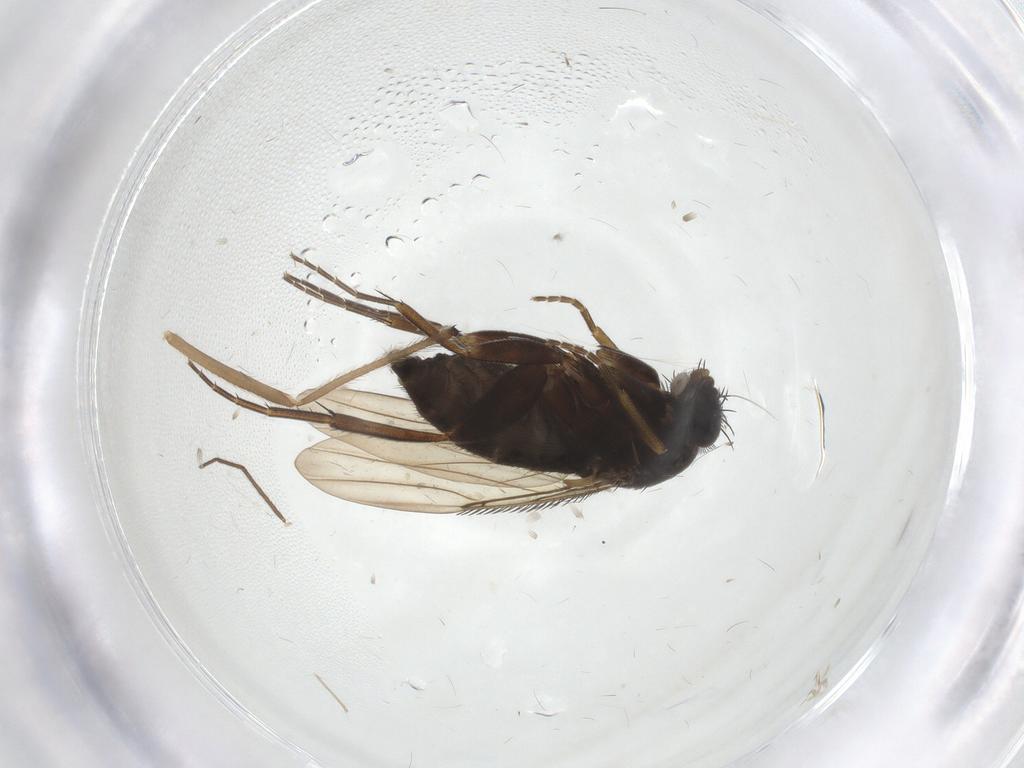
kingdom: Animalia
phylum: Arthropoda
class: Insecta
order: Diptera
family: Phoridae
